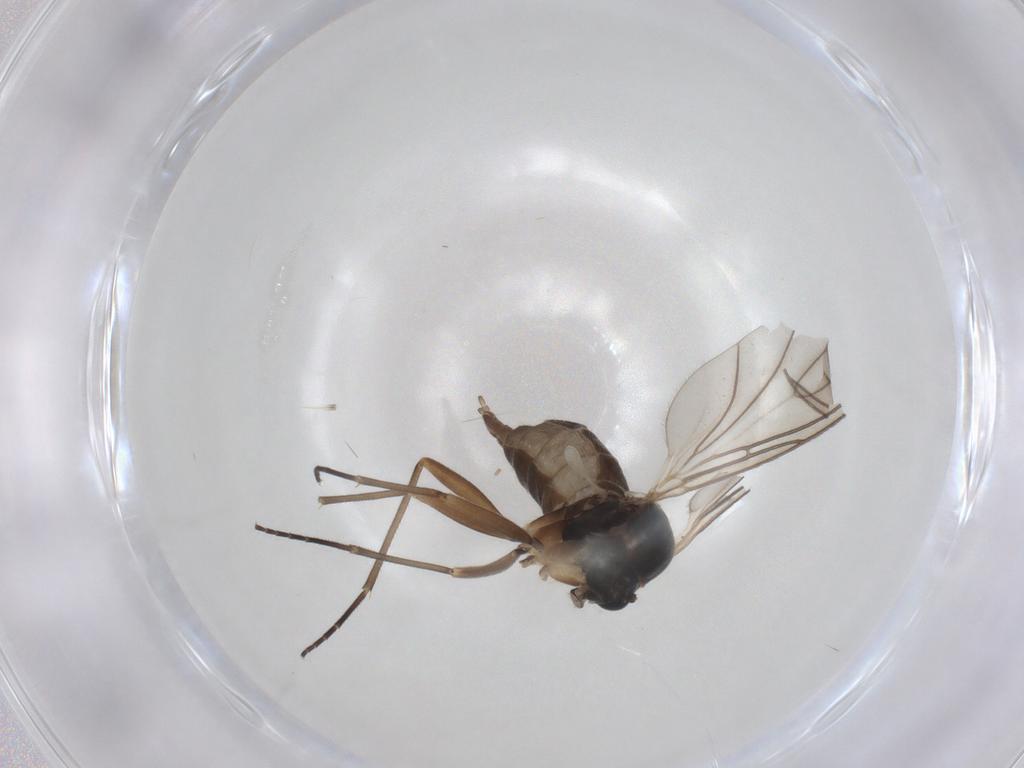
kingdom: Animalia
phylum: Arthropoda
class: Insecta
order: Diptera
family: Sciaridae
